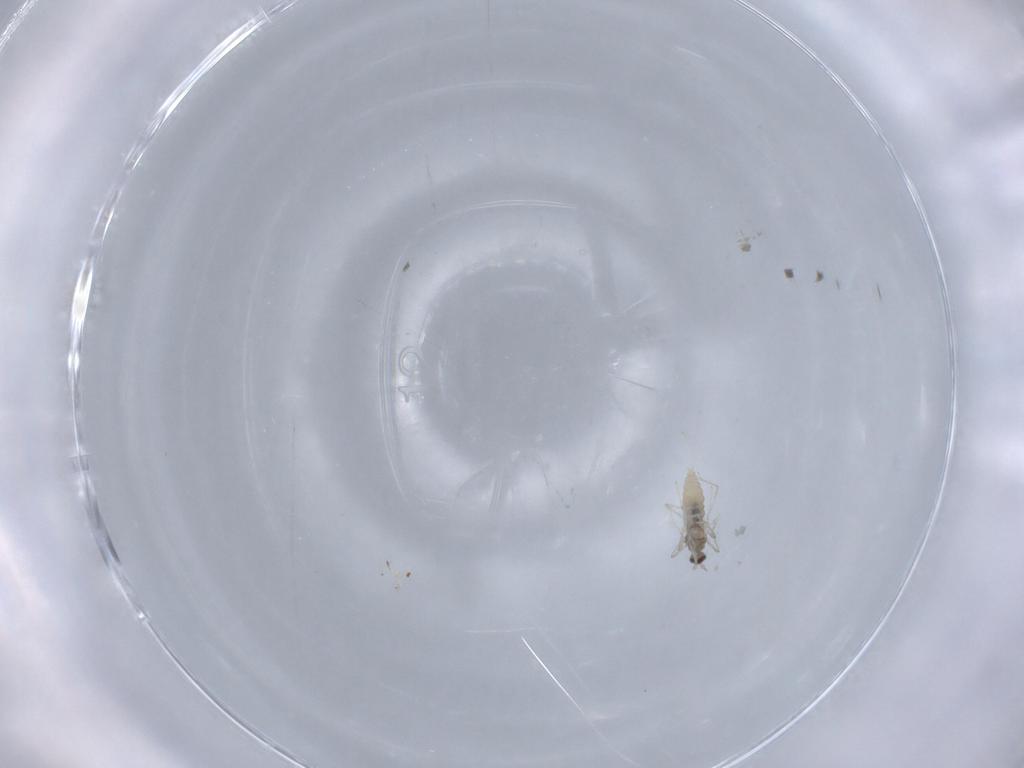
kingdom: Animalia
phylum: Arthropoda
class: Insecta
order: Diptera
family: Cecidomyiidae
